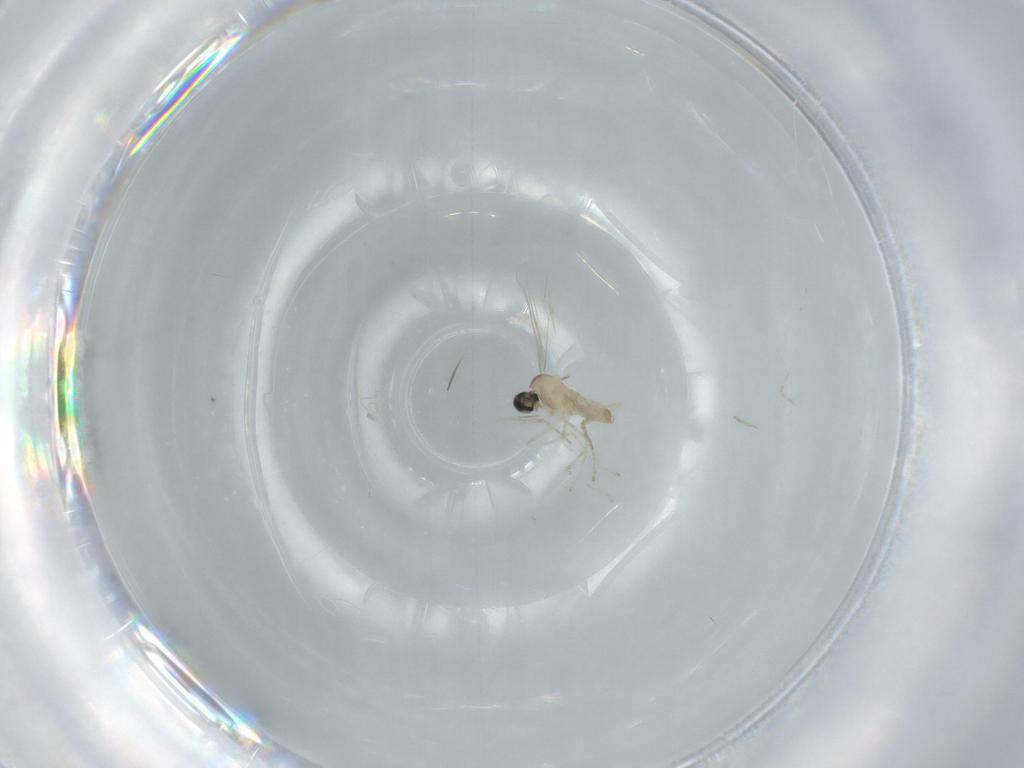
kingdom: Animalia
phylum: Arthropoda
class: Insecta
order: Diptera
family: Cecidomyiidae
